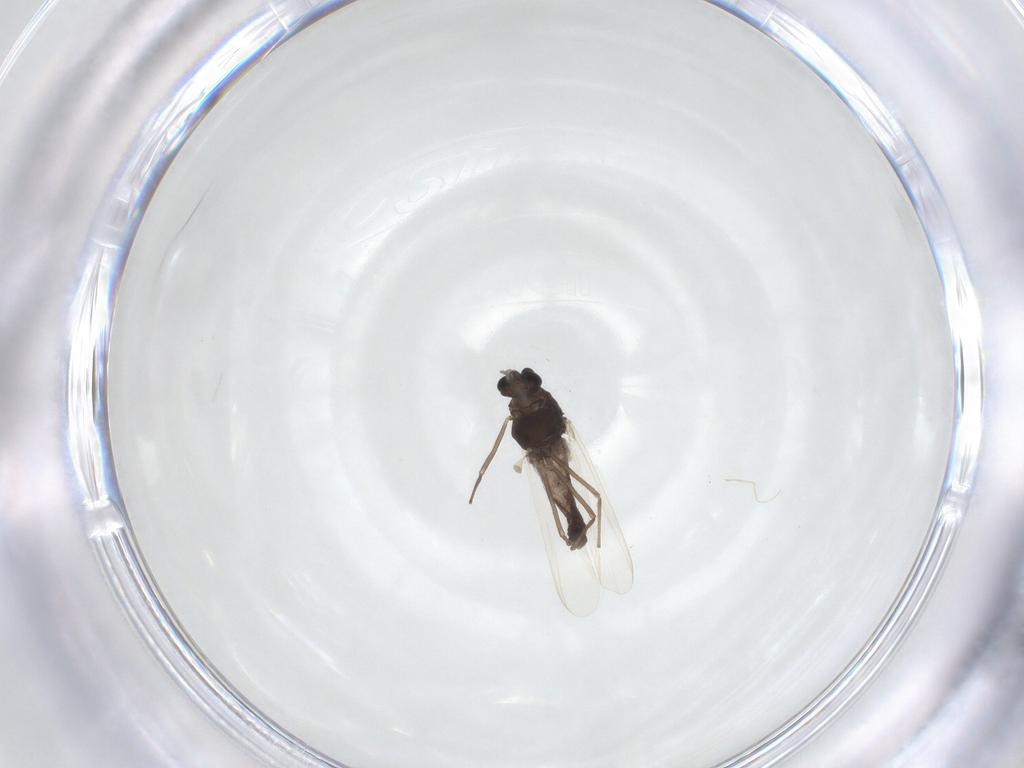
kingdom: Animalia
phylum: Arthropoda
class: Insecta
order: Diptera
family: Chironomidae
